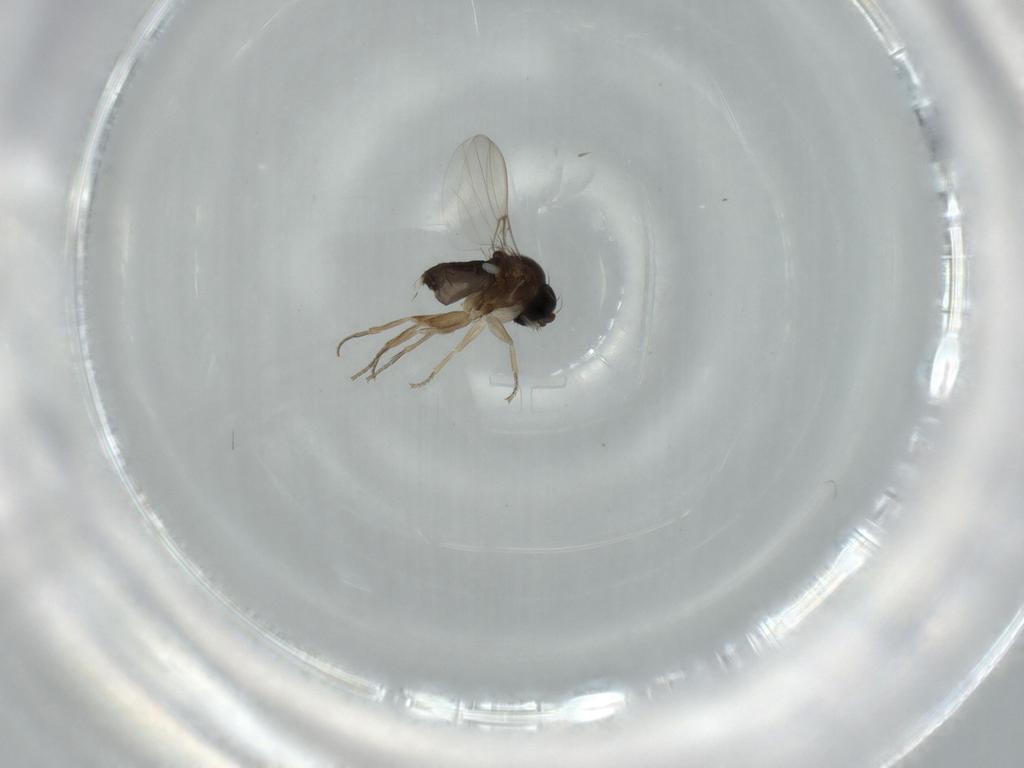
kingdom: Animalia
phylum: Arthropoda
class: Insecta
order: Diptera
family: Phoridae
